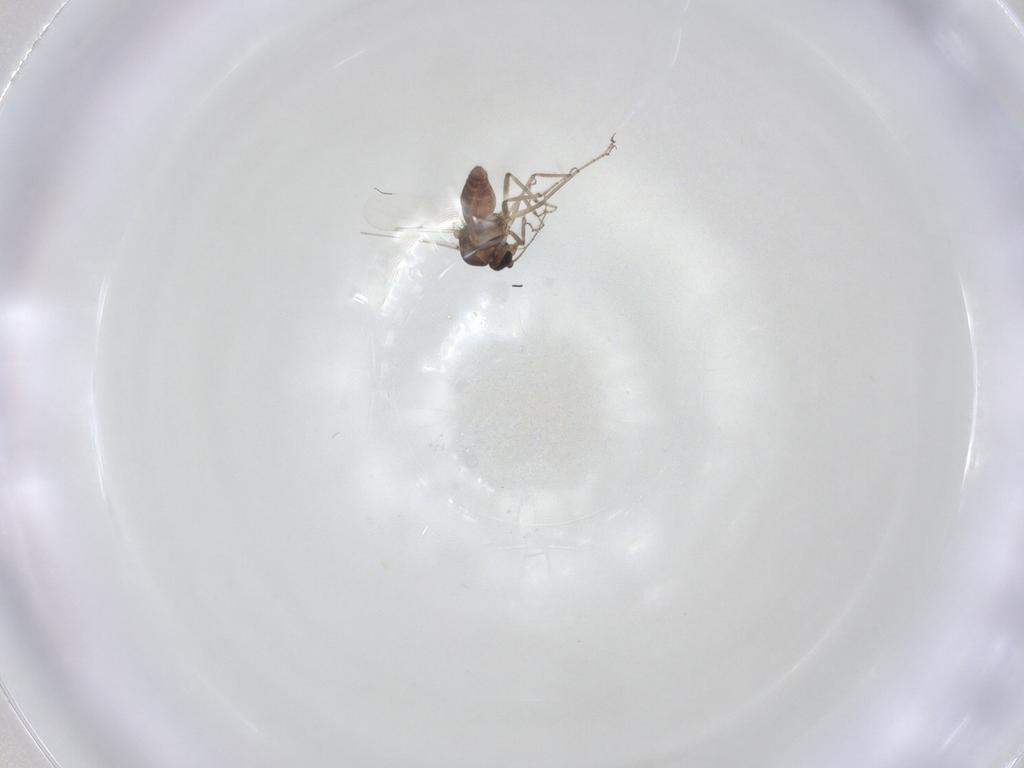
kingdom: Animalia
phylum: Arthropoda
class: Insecta
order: Diptera
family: Ceratopogonidae
